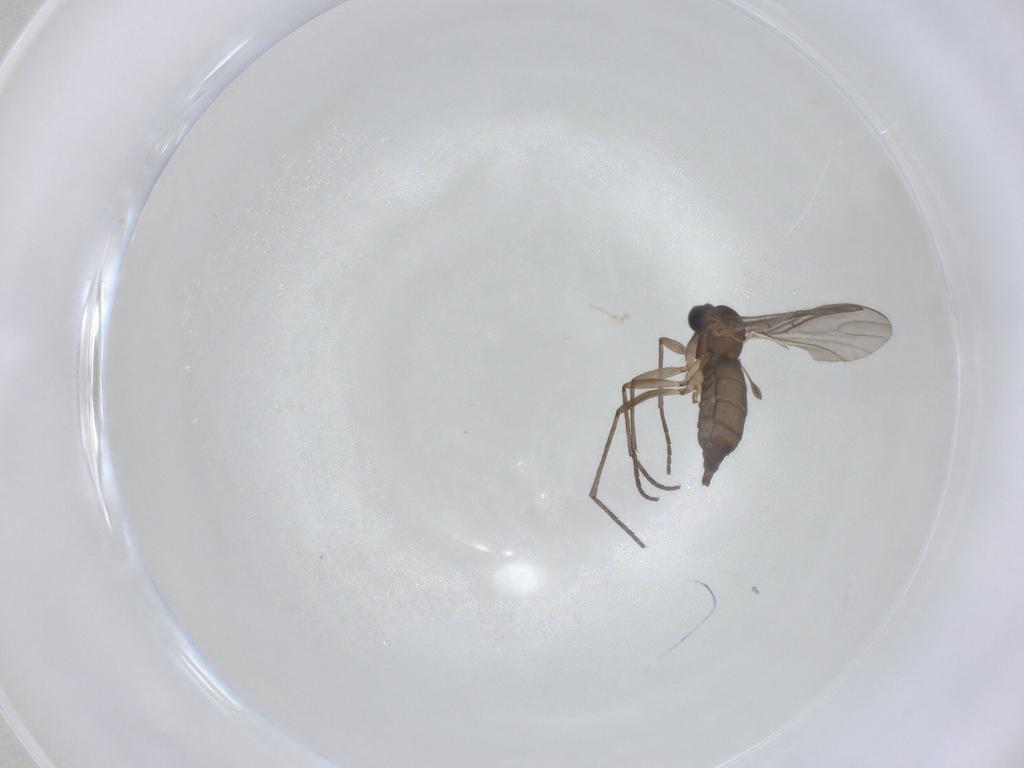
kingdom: Animalia
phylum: Arthropoda
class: Insecta
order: Diptera
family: Sciaridae
